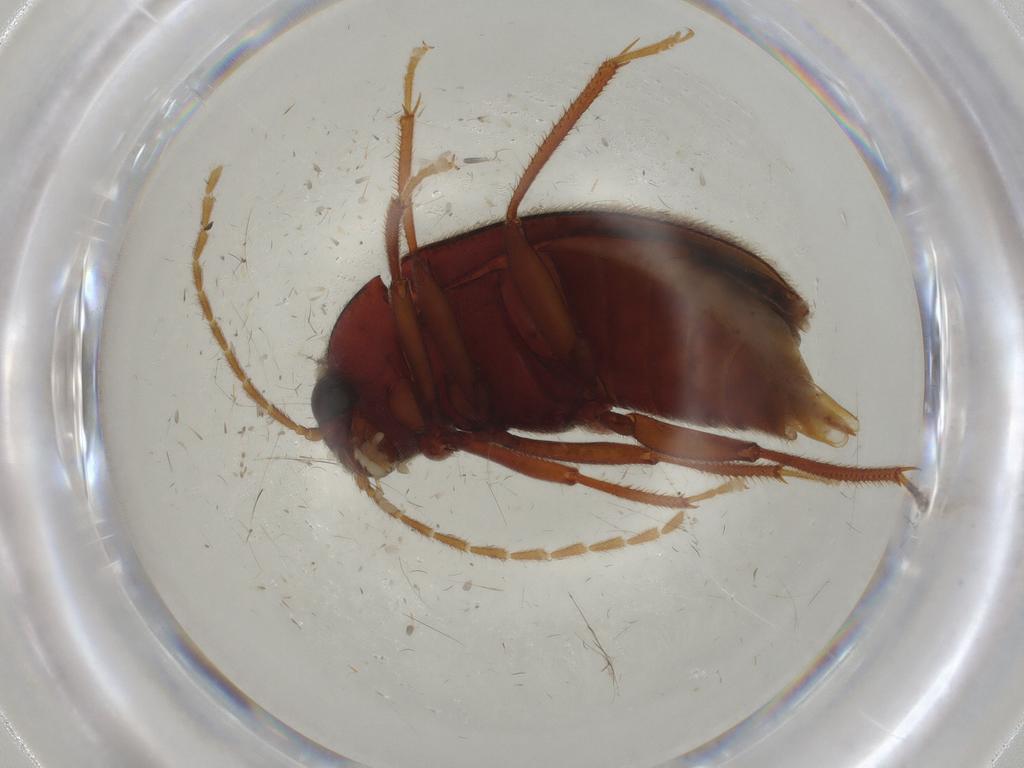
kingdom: Animalia
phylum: Arthropoda
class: Insecta
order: Coleoptera
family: Ptilodactylidae
